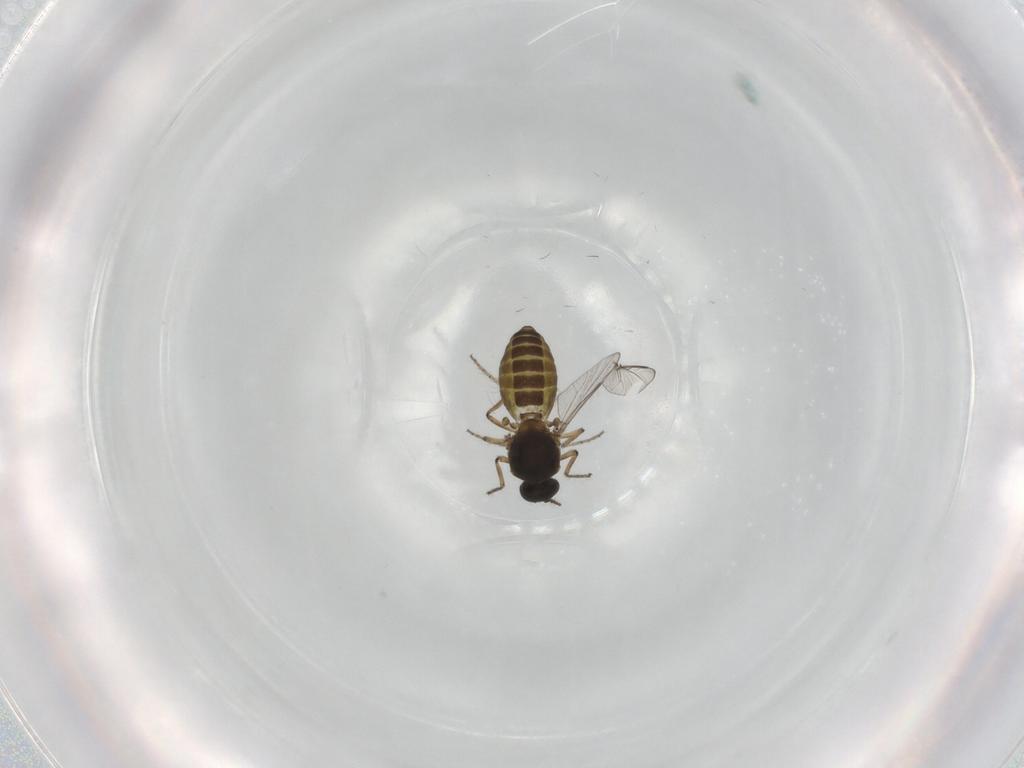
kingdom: Animalia
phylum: Arthropoda
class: Insecta
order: Diptera
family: Ceratopogonidae
